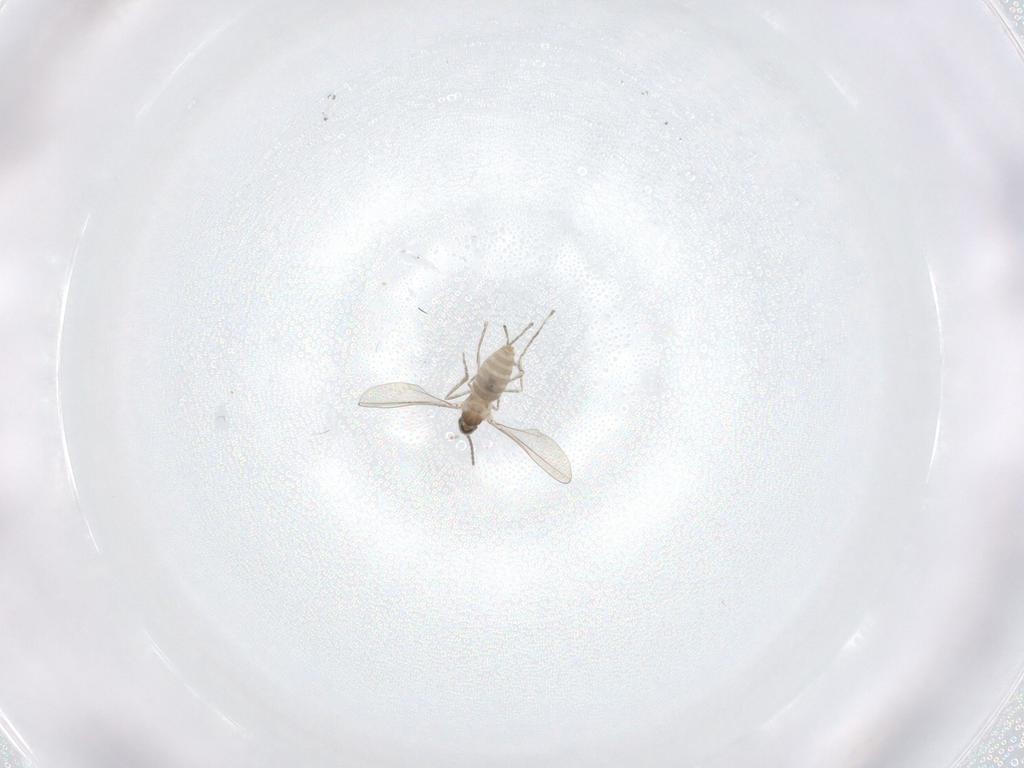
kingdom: Animalia
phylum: Arthropoda
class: Insecta
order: Diptera
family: Cecidomyiidae
